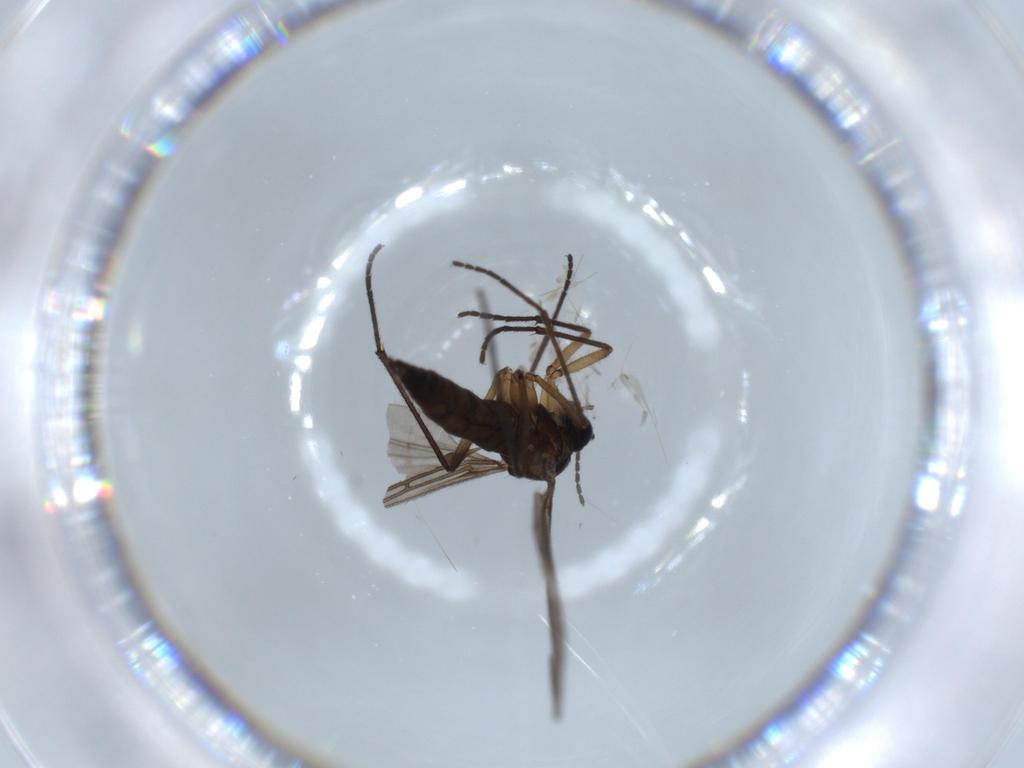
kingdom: Animalia
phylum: Arthropoda
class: Insecta
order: Diptera
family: Sciaridae
